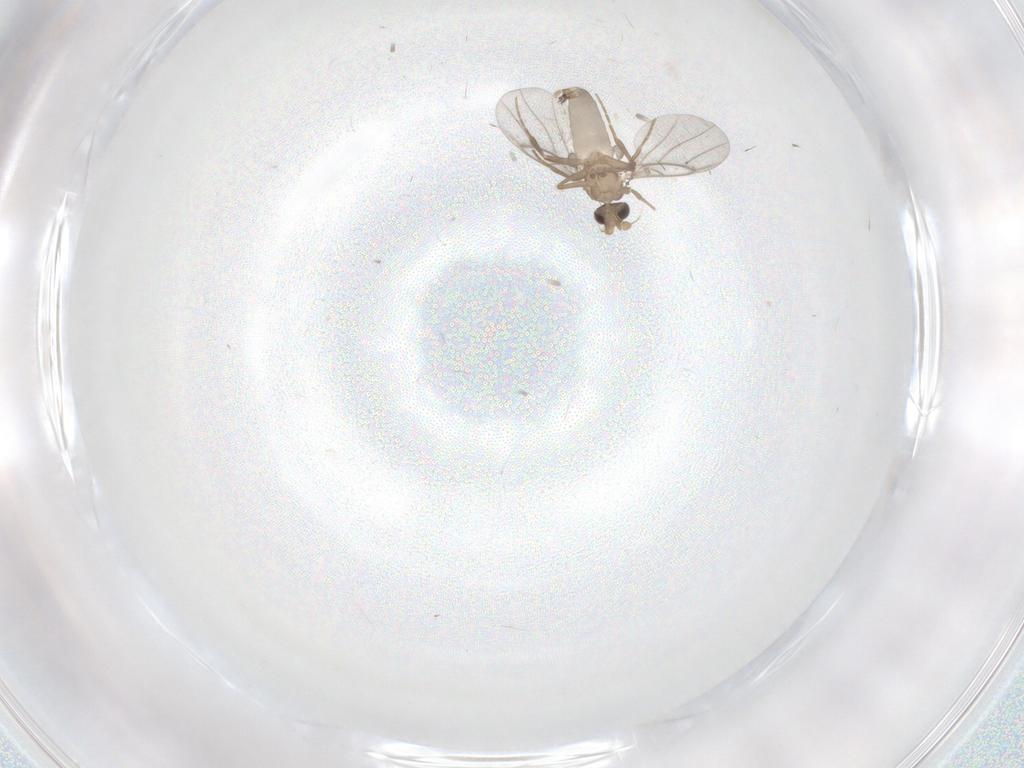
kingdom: Animalia
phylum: Arthropoda
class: Insecta
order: Diptera
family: Cecidomyiidae
